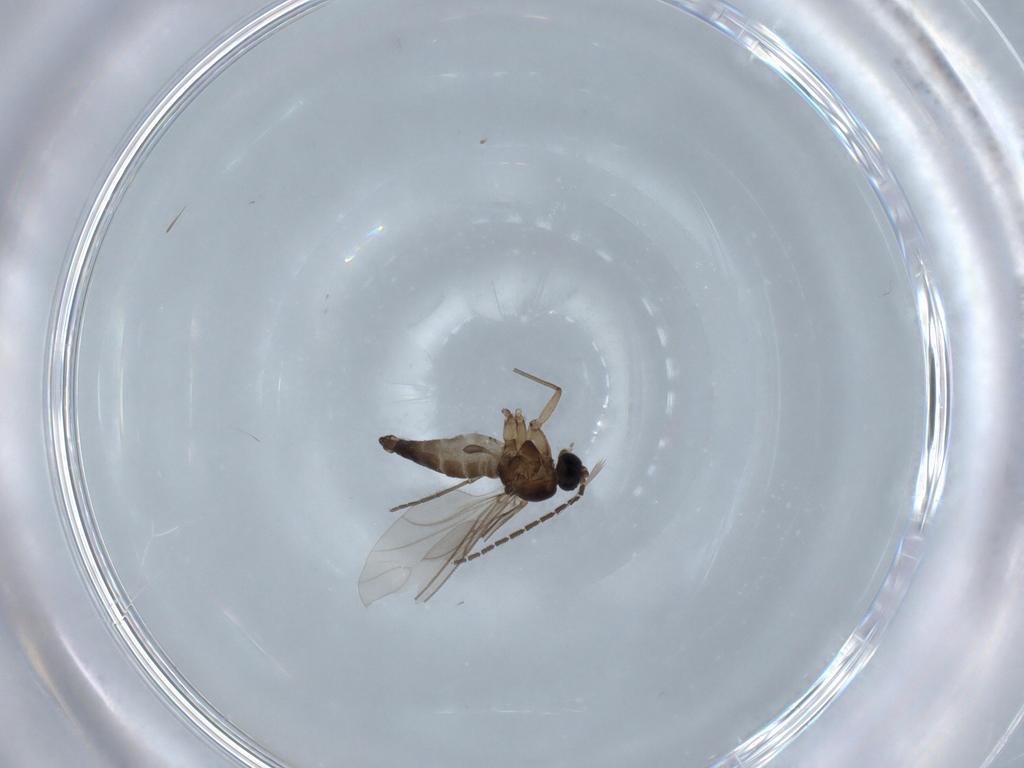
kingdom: Animalia
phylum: Arthropoda
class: Insecta
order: Diptera
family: Sciaridae
